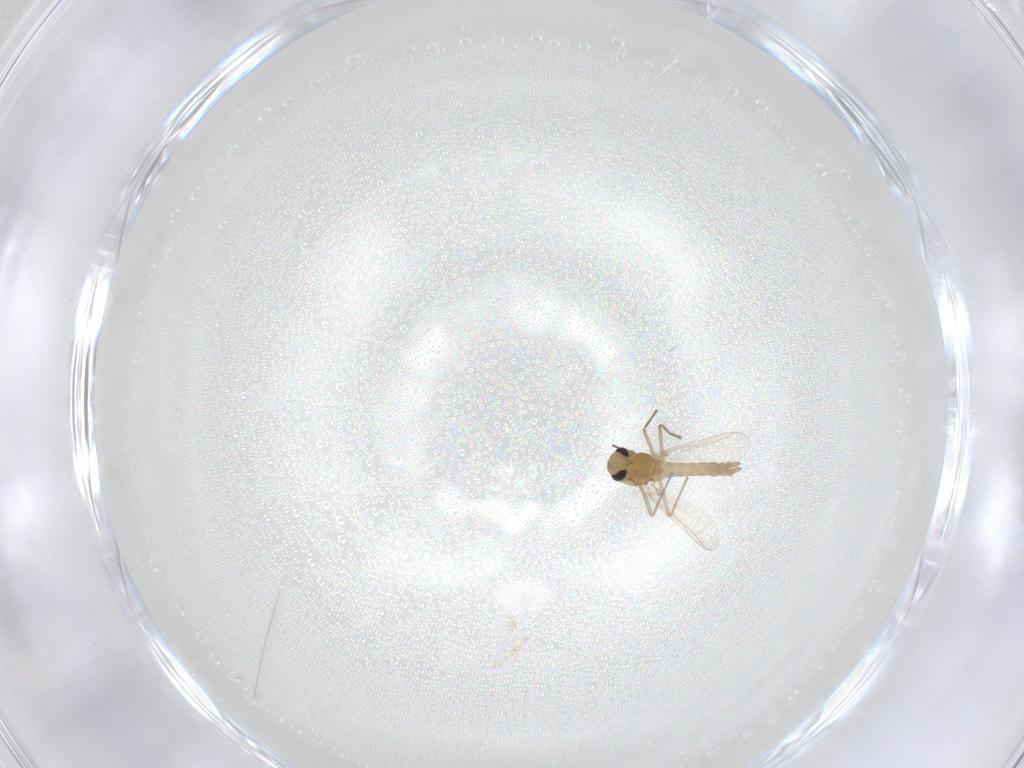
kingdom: Animalia
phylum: Arthropoda
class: Insecta
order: Diptera
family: Chironomidae
